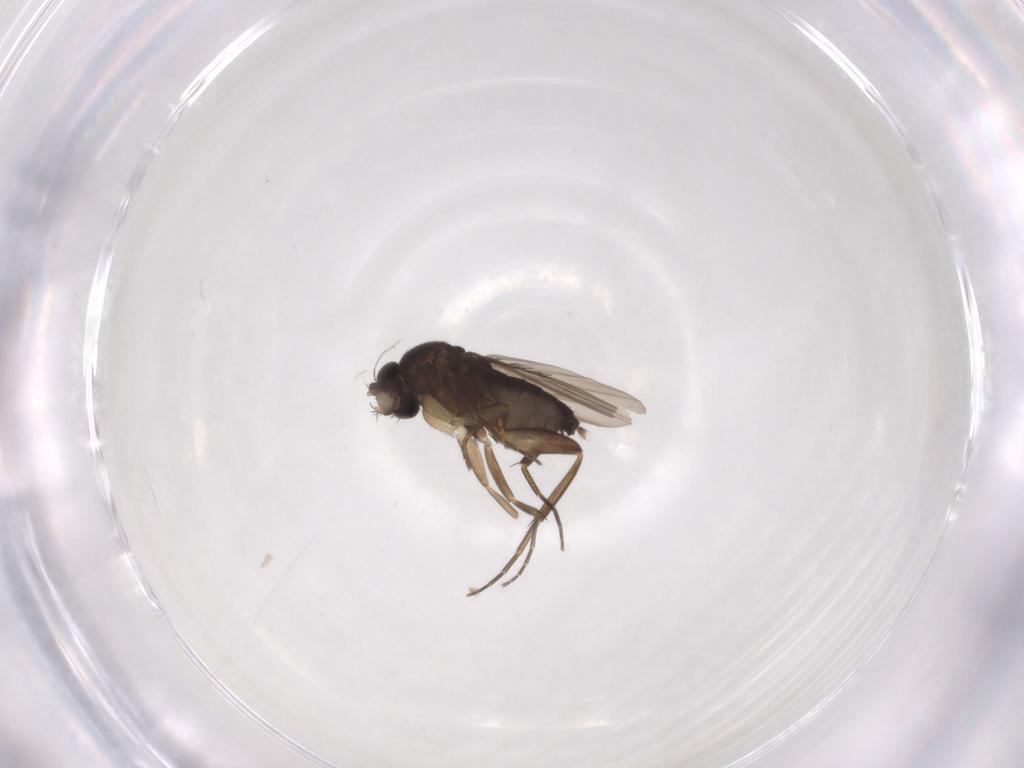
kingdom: Animalia
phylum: Arthropoda
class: Insecta
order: Diptera
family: Phoridae
